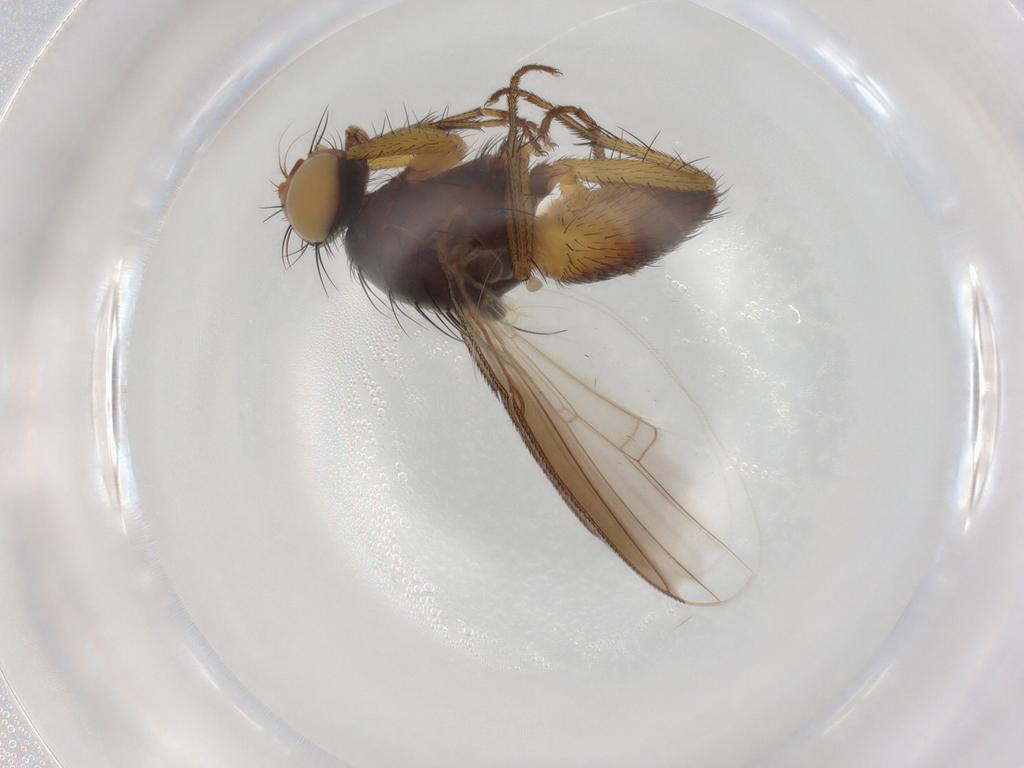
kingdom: Animalia
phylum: Arthropoda
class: Insecta
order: Diptera
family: Muscidae
